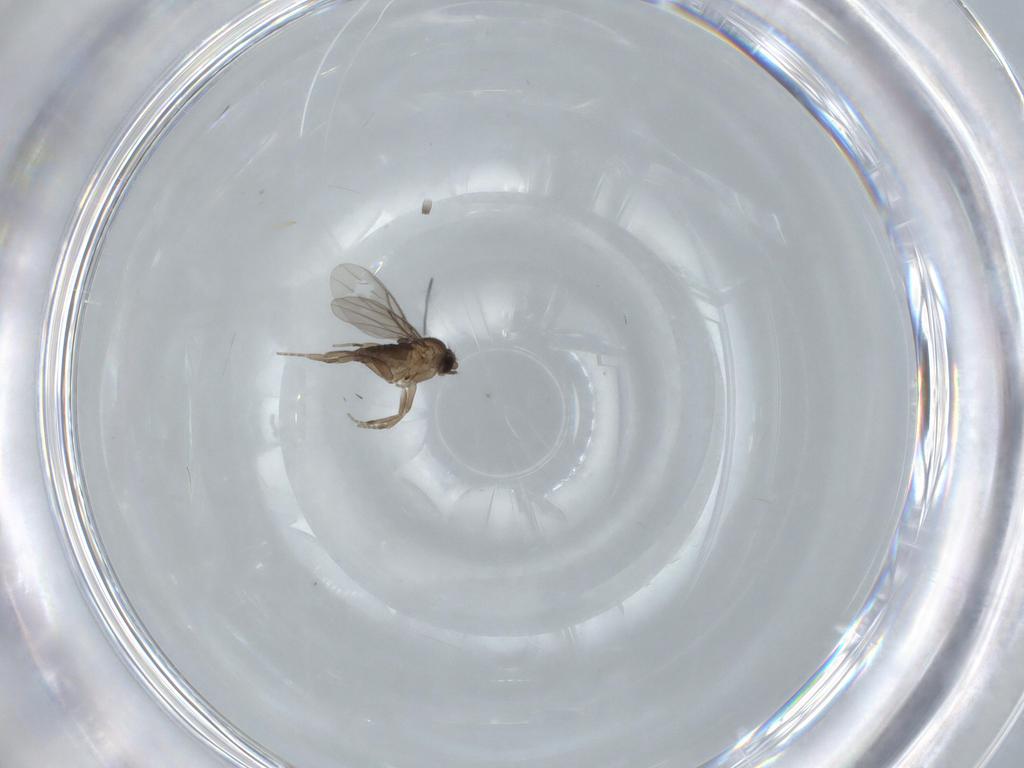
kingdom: Animalia
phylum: Arthropoda
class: Insecta
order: Diptera
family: Phoridae
